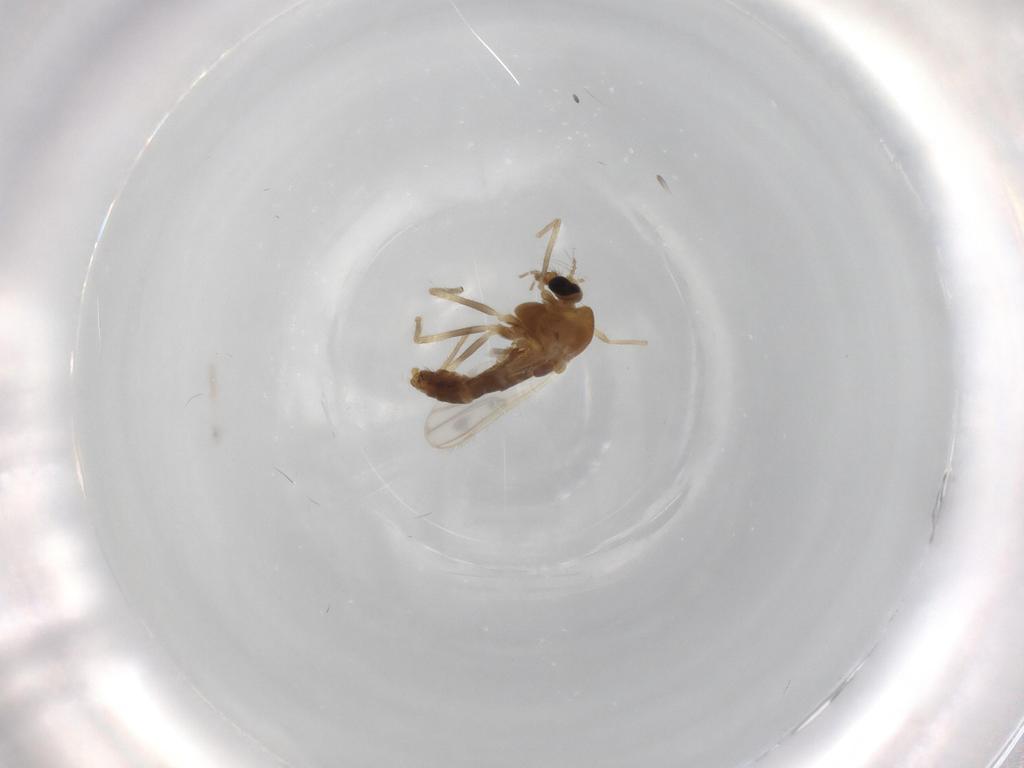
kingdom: Animalia
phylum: Arthropoda
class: Insecta
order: Diptera
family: Chironomidae
